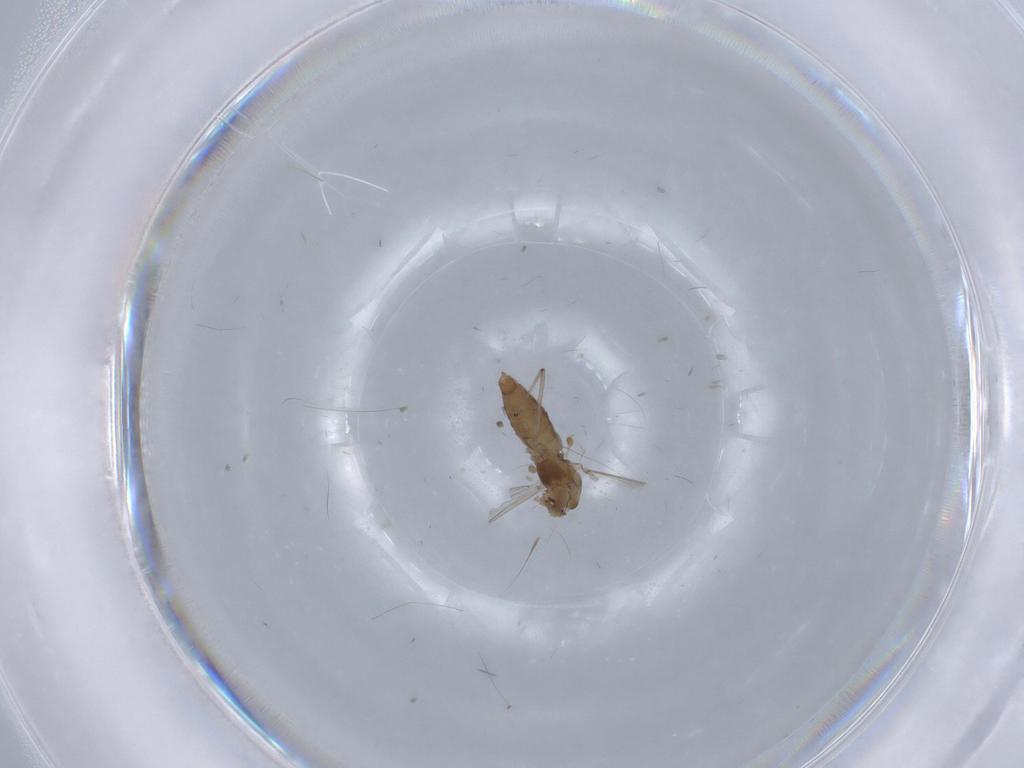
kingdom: Animalia
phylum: Arthropoda
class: Insecta
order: Diptera
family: Chironomidae
